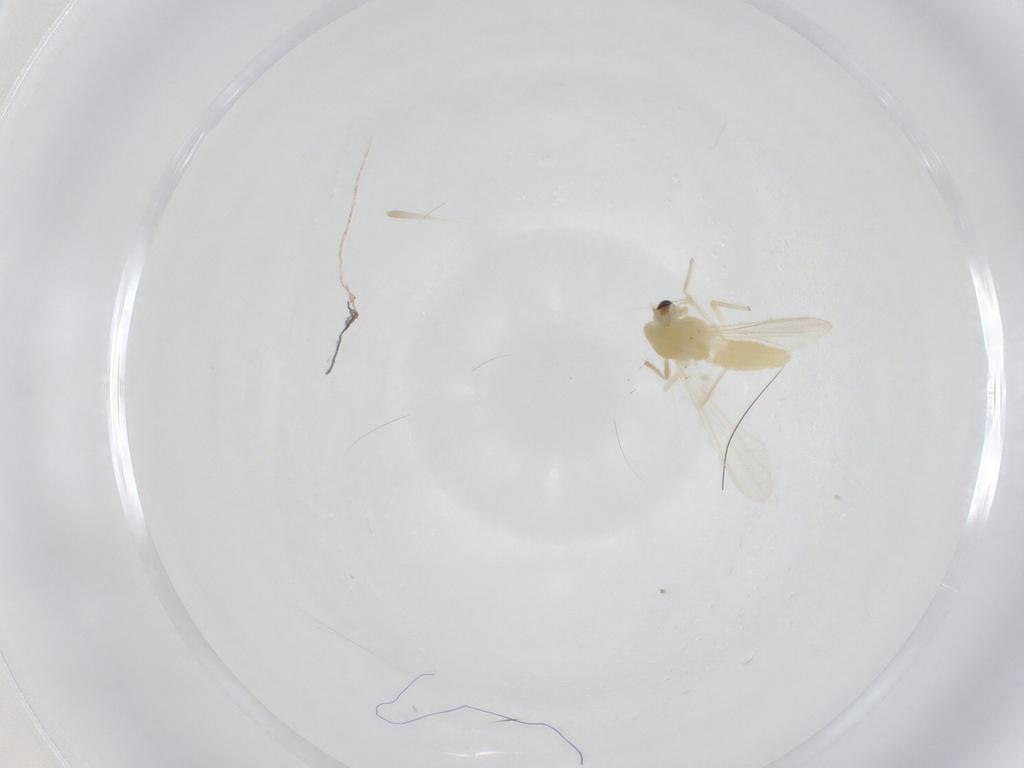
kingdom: Animalia
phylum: Arthropoda
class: Insecta
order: Diptera
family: Chironomidae
